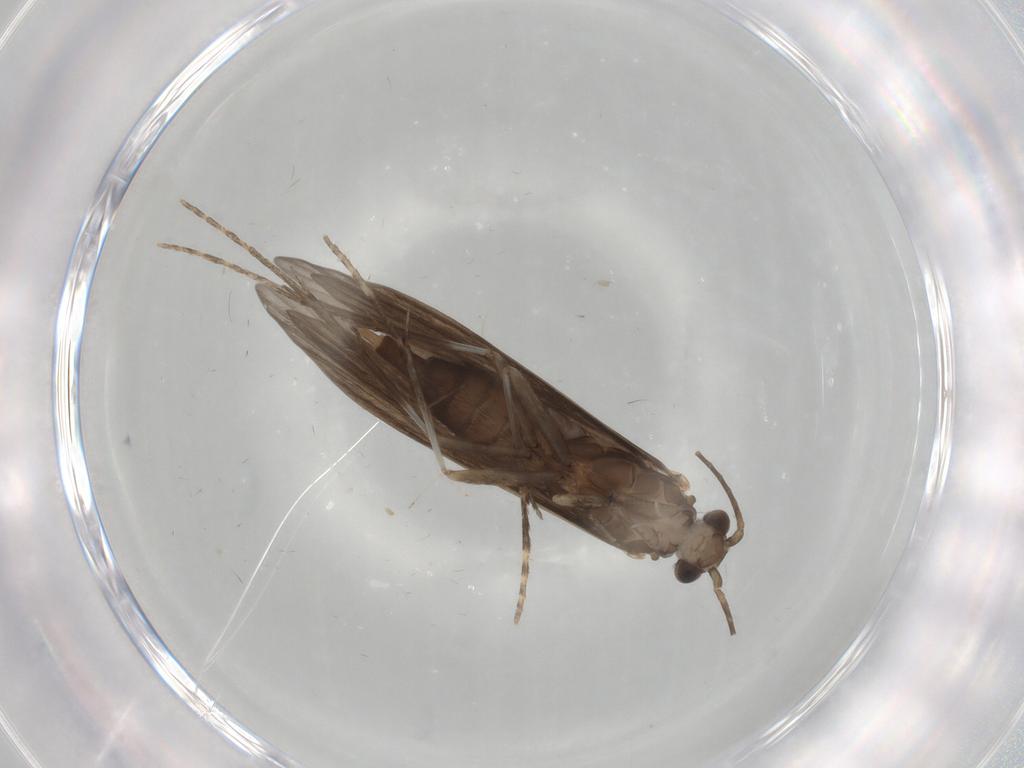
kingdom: Animalia
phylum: Arthropoda
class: Insecta
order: Trichoptera
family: Xiphocentronidae
